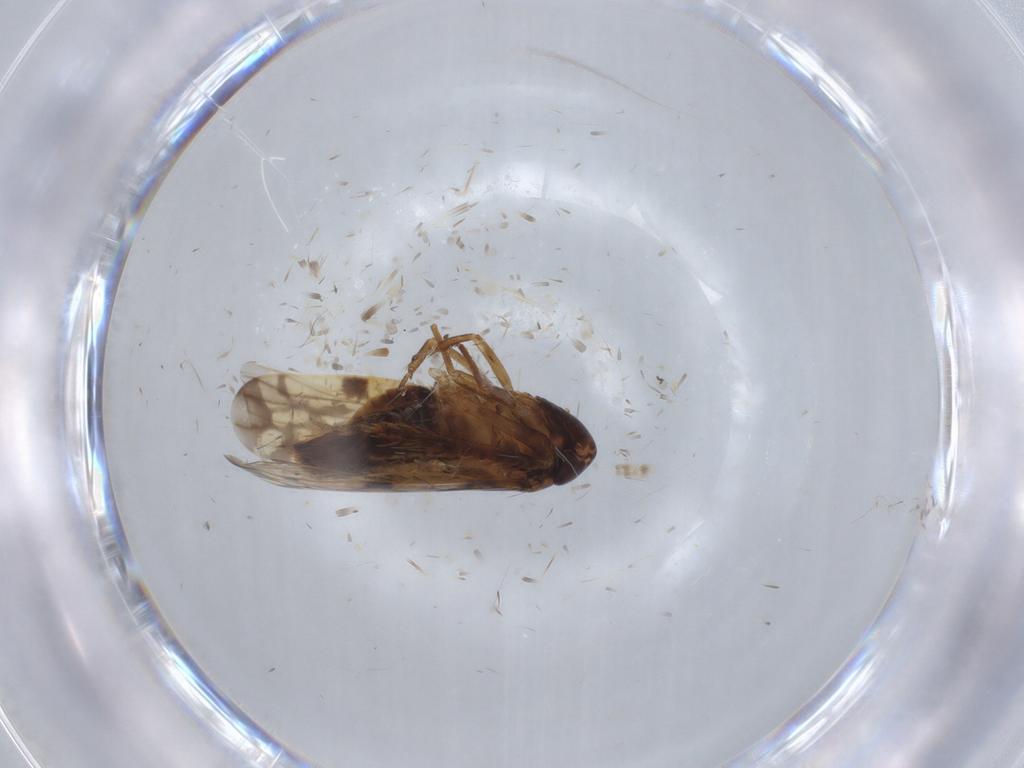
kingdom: Animalia
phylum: Arthropoda
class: Insecta
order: Hemiptera
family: Cicadellidae
